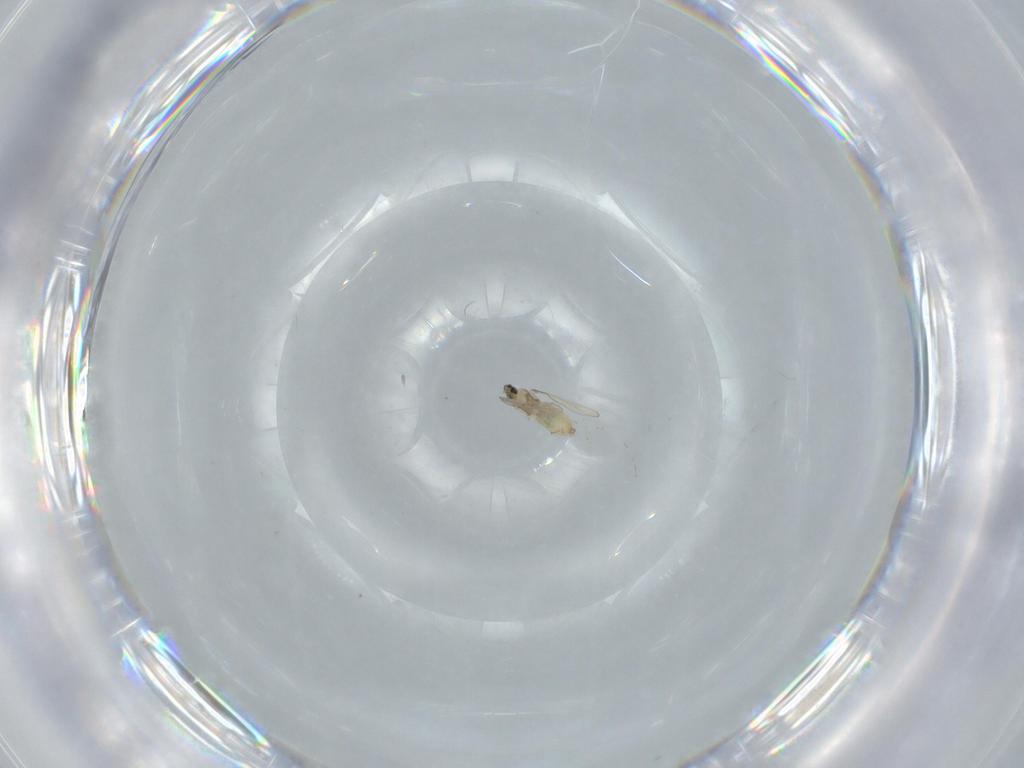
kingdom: Animalia
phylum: Arthropoda
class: Insecta
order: Diptera
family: Cecidomyiidae
